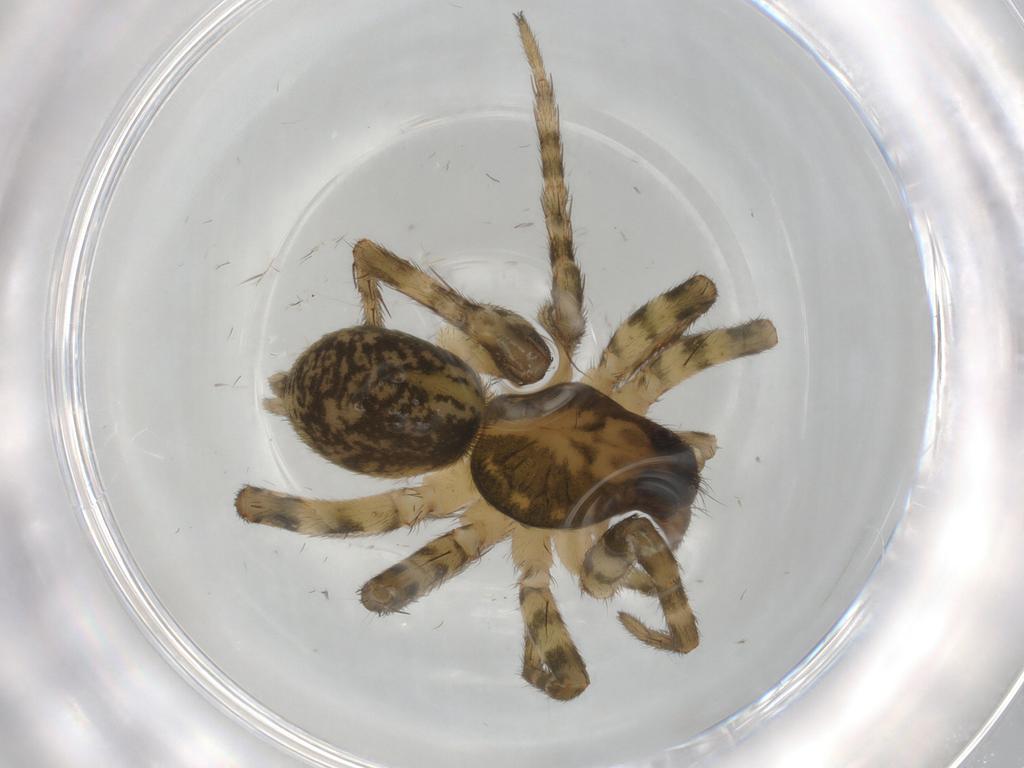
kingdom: Animalia
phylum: Arthropoda
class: Arachnida
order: Araneae
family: Lycosidae
